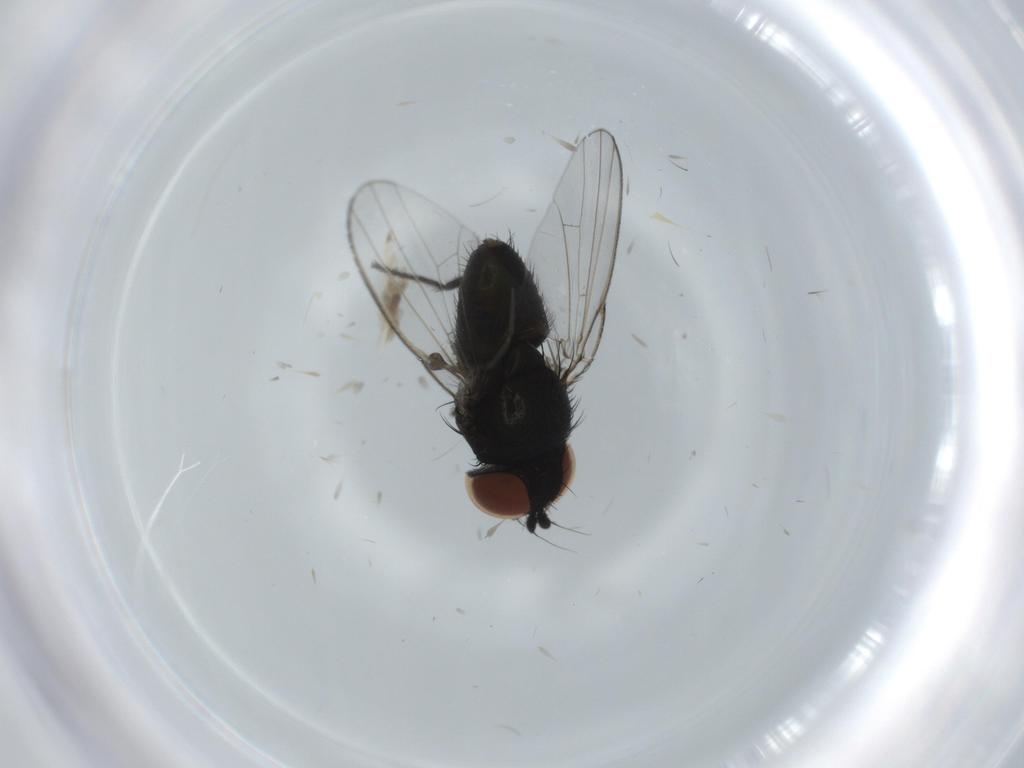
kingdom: Animalia
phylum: Arthropoda
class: Insecta
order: Diptera
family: Milichiidae
